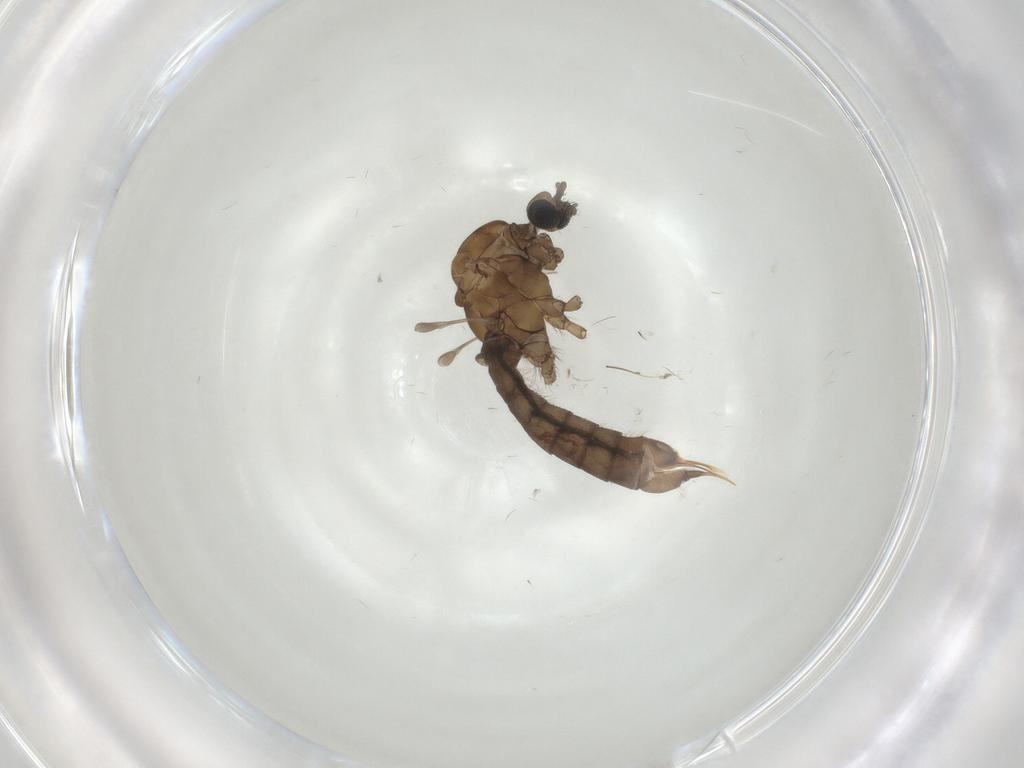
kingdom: Animalia
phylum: Arthropoda
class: Insecta
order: Diptera
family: Limoniidae
